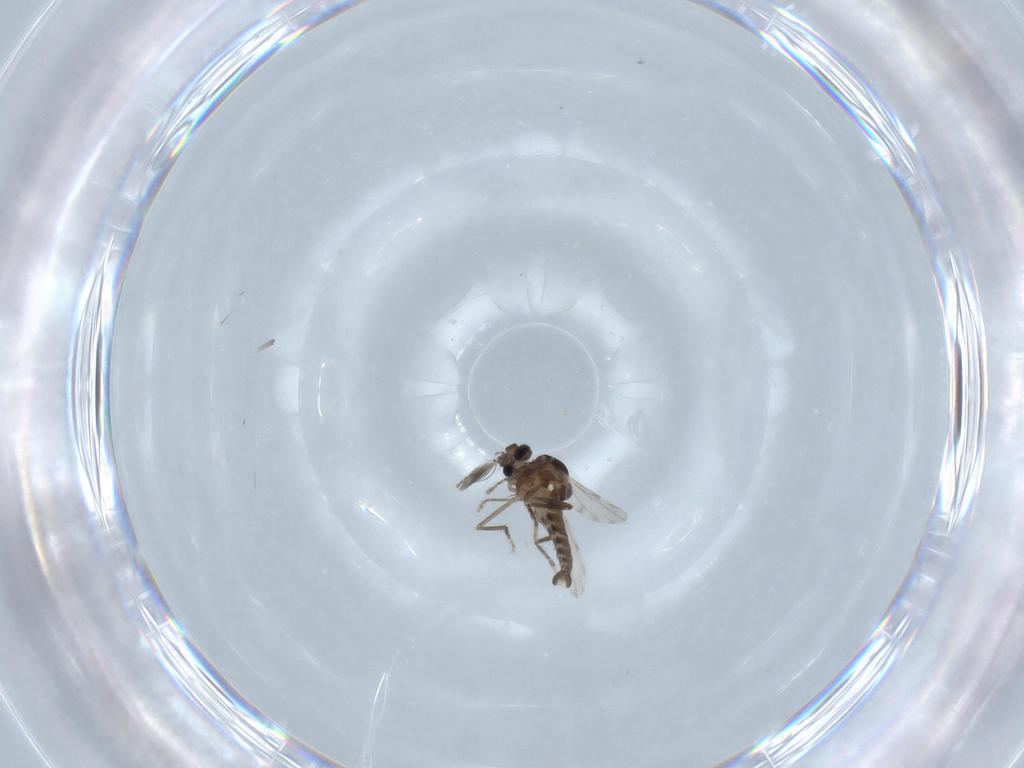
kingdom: Animalia
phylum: Arthropoda
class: Insecta
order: Diptera
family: Ceratopogonidae
